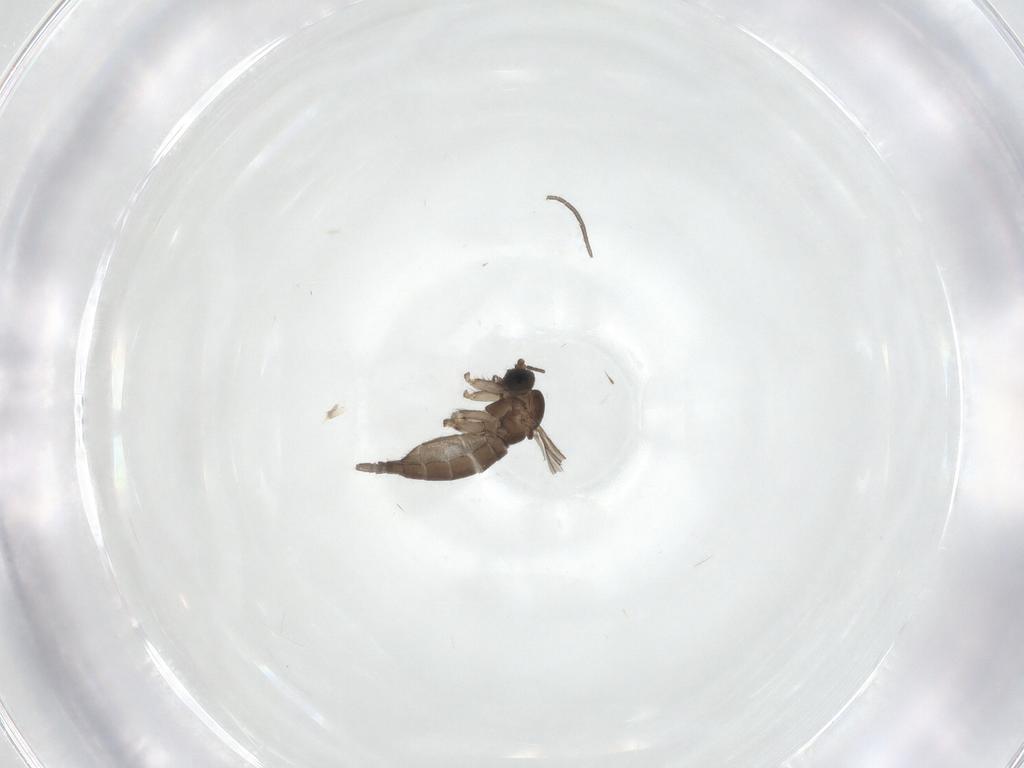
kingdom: Animalia
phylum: Arthropoda
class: Insecta
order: Diptera
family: Sciaridae
